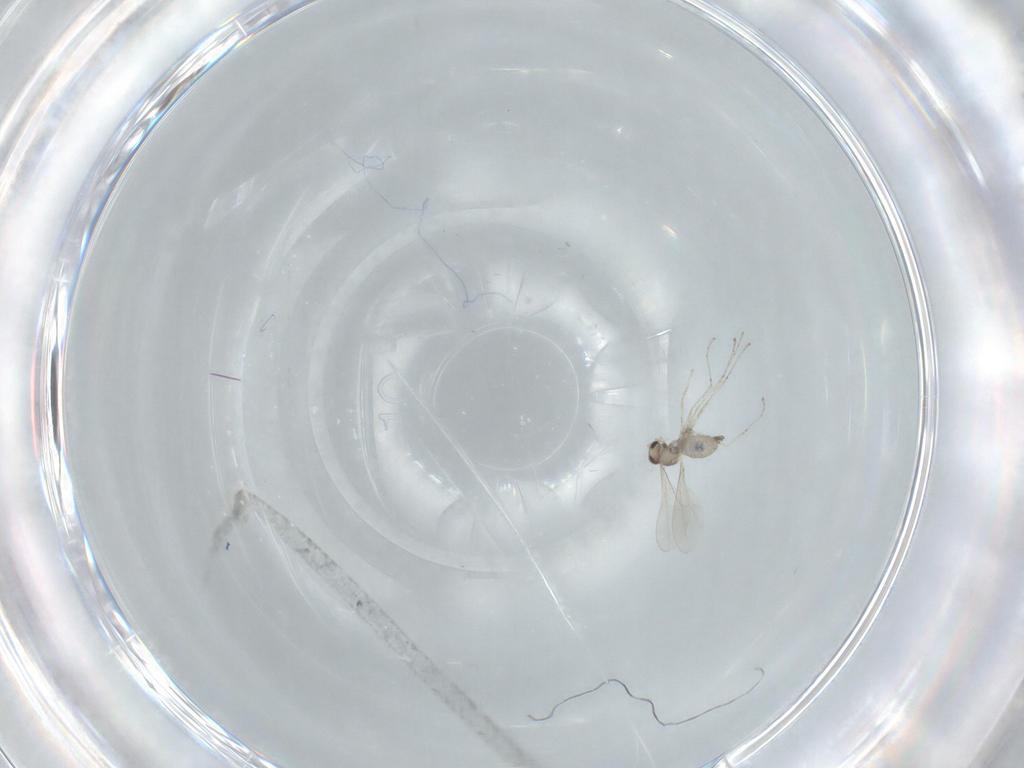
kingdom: Animalia
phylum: Arthropoda
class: Insecta
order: Diptera
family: Cecidomyiidae
